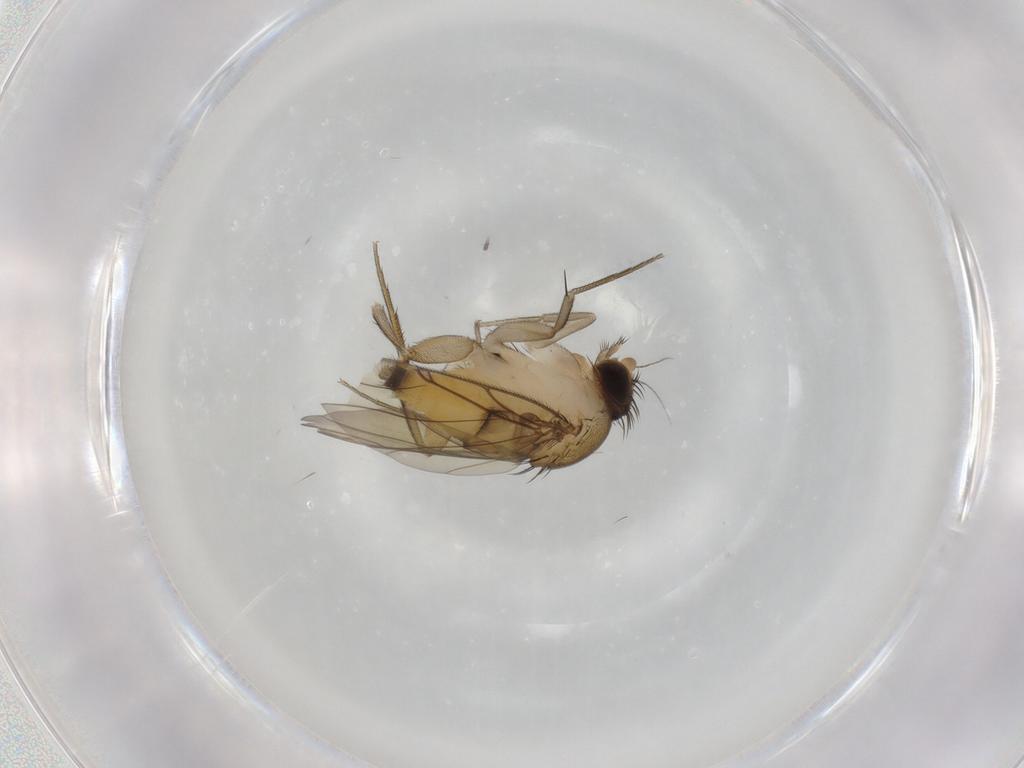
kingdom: Animalia
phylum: Arthropoda
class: Insecta
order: Diptera
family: Phoridae
